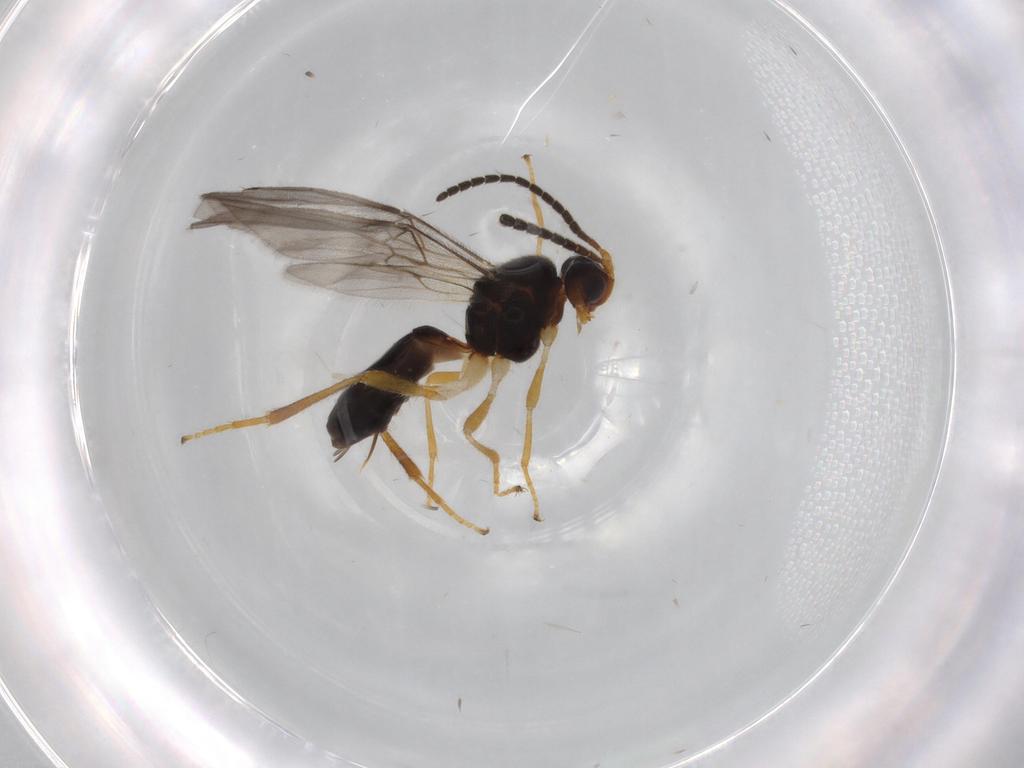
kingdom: Animalia
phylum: Arthropoda
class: Insecta
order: Hymenoptera
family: Braconidae
